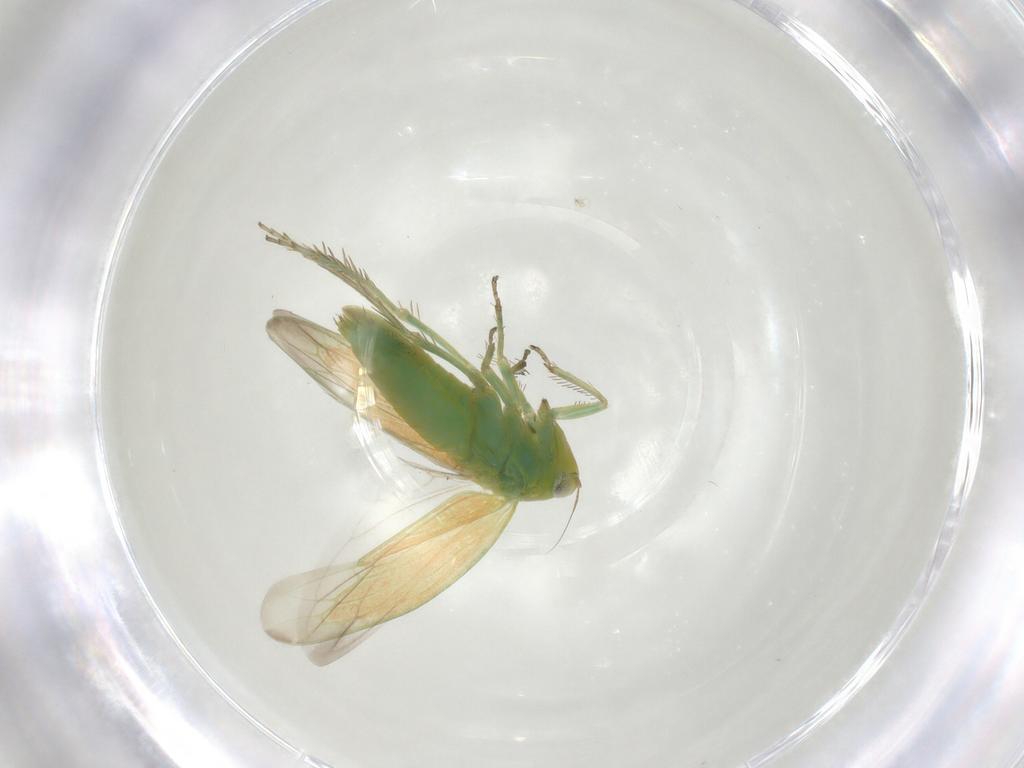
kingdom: Animalia
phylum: Arthropoda
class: Insecta
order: Hemiptera
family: Cicadellidae
